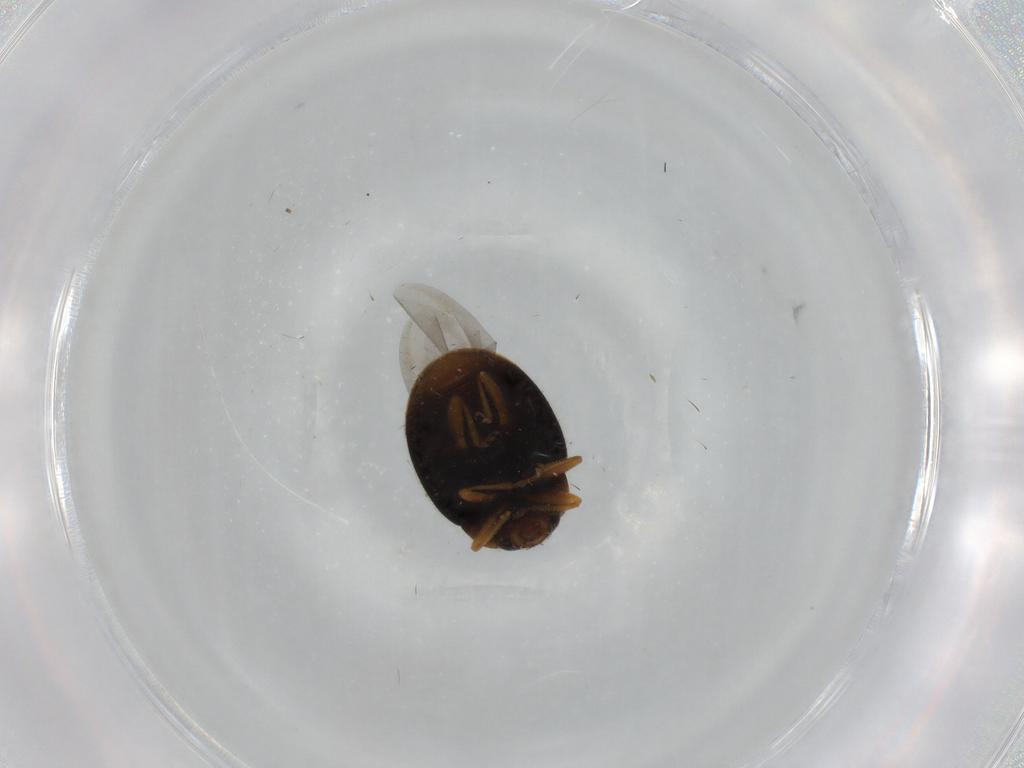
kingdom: Animalia
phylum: Arthropoda
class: Insecta
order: Coleoptera
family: Coccinellidae
